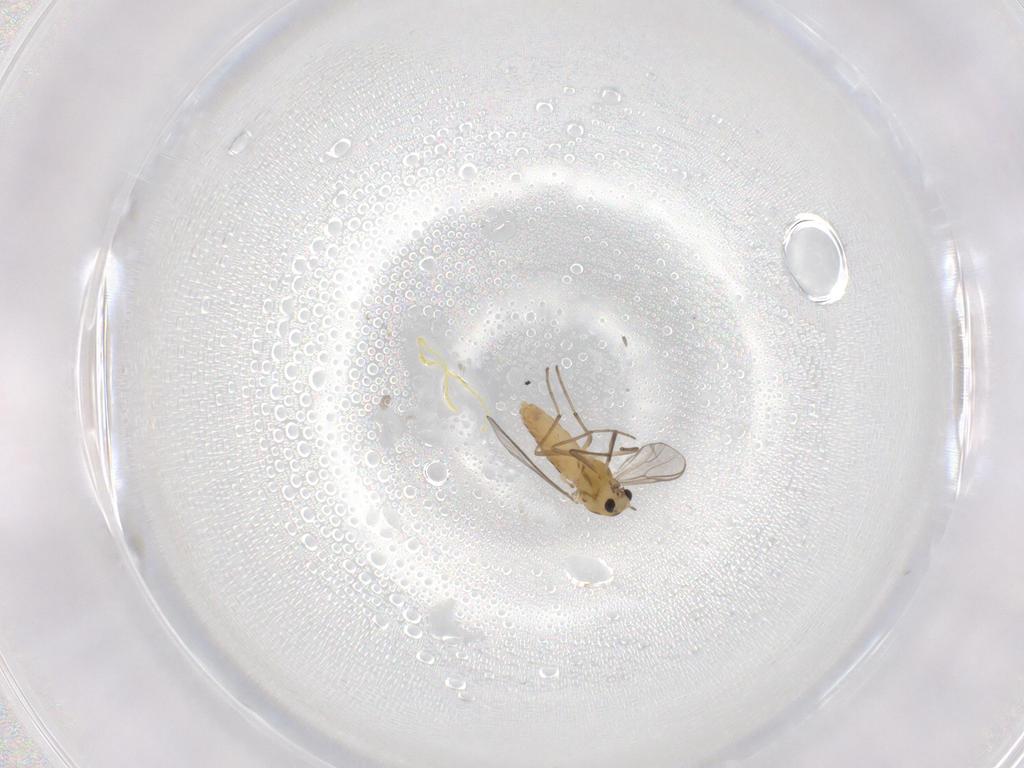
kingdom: Animalia
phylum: Arthropoda
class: Insecta
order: Diptera
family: Chironomidae
